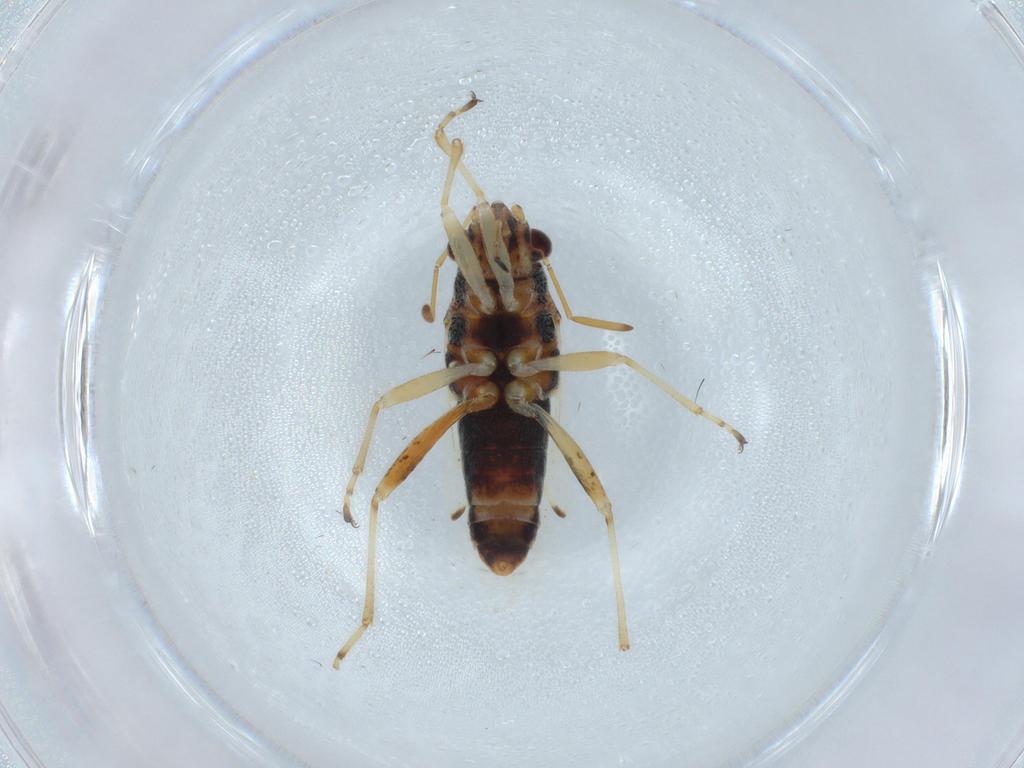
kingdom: Animalia
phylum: Arthropoda
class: Insecta
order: Hemiptera
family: Lygaeidae
